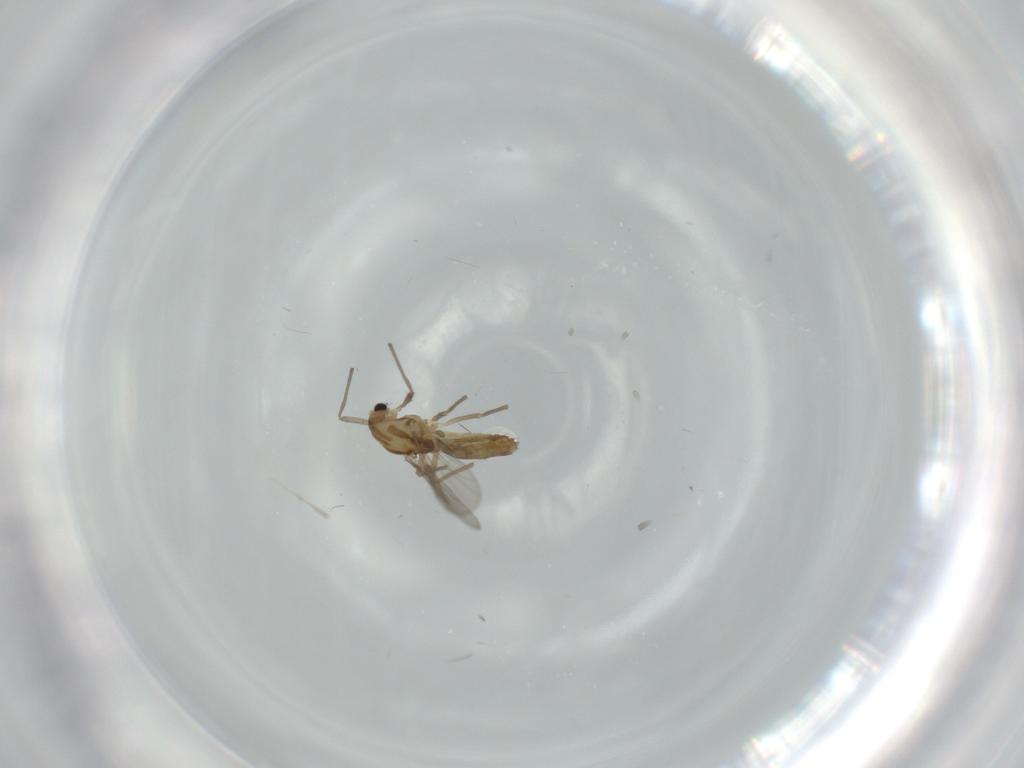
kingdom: Animalia
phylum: Arthropoda
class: Insecta
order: Diptera
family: Chironomidae
